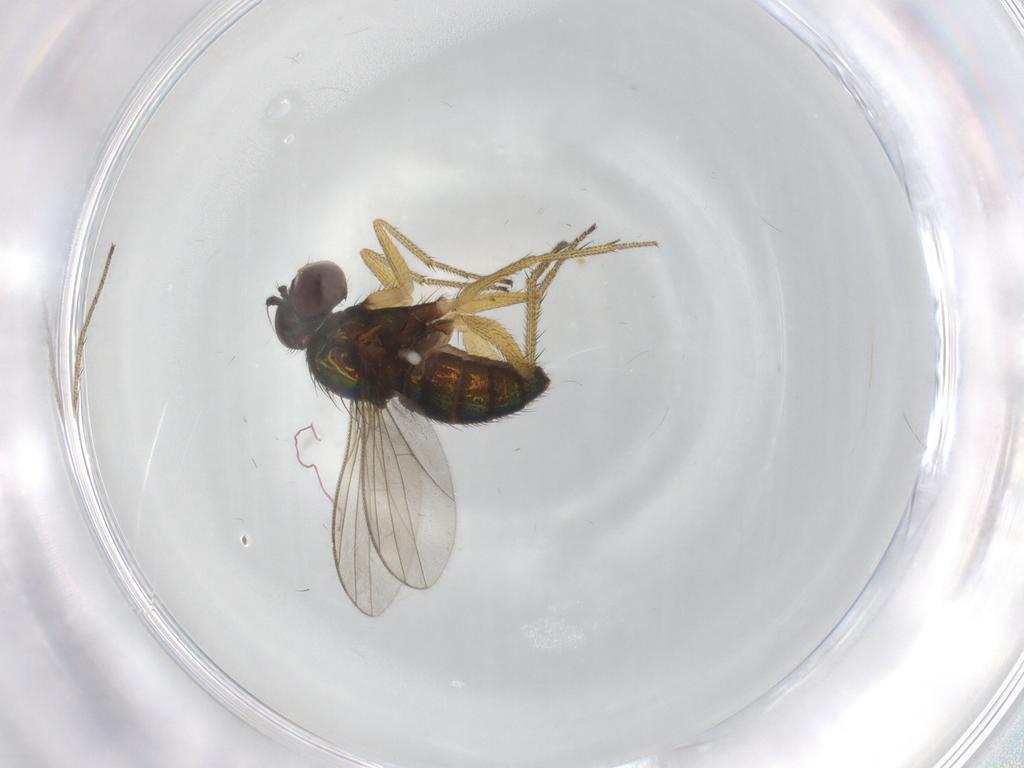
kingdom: Animalia
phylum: Arthropoda
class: Insecta
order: Diptera
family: Dolichopodidae
